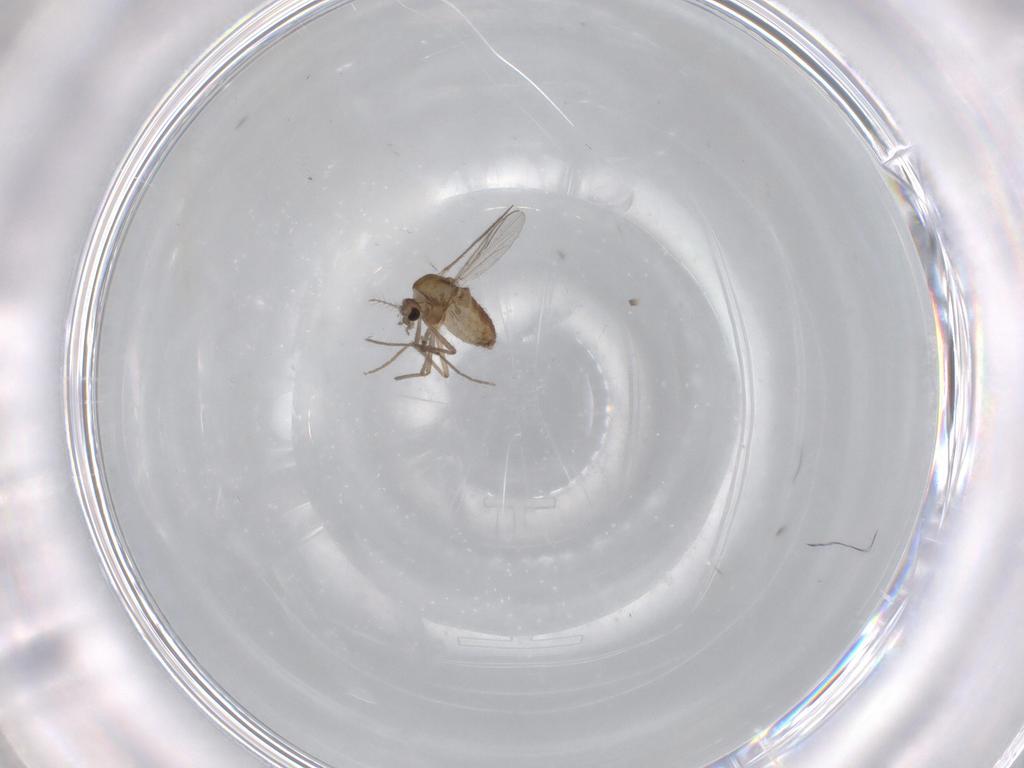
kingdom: Animalia
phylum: Arthropoda
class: Insecta
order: Diptera
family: Chironomidae
